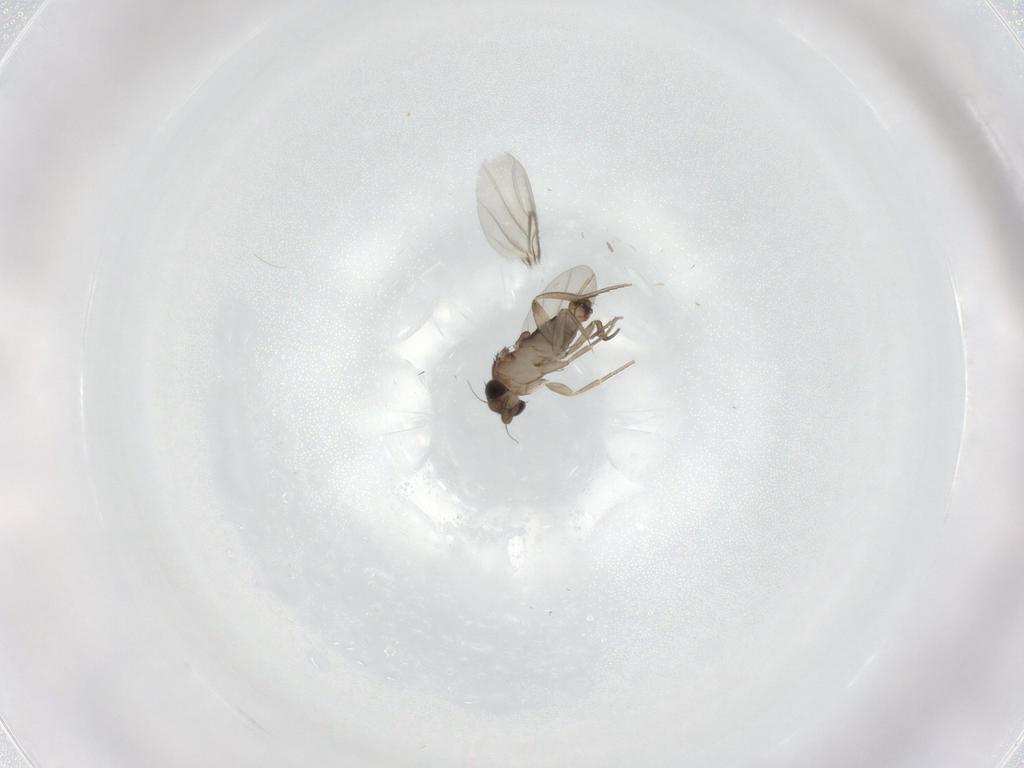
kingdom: Animalia
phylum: Arthropoda
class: Insecta
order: Diptera
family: Phoridae
